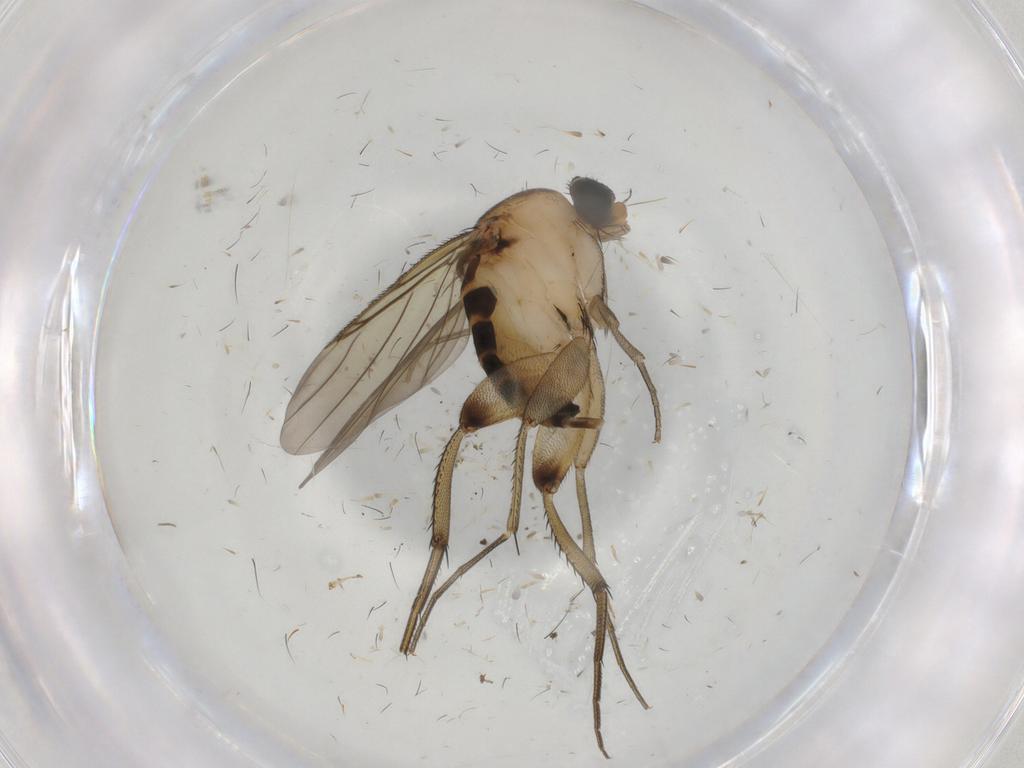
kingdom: Animalia
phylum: Arthropoda
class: Insecta
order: Diptera
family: Phoridae
